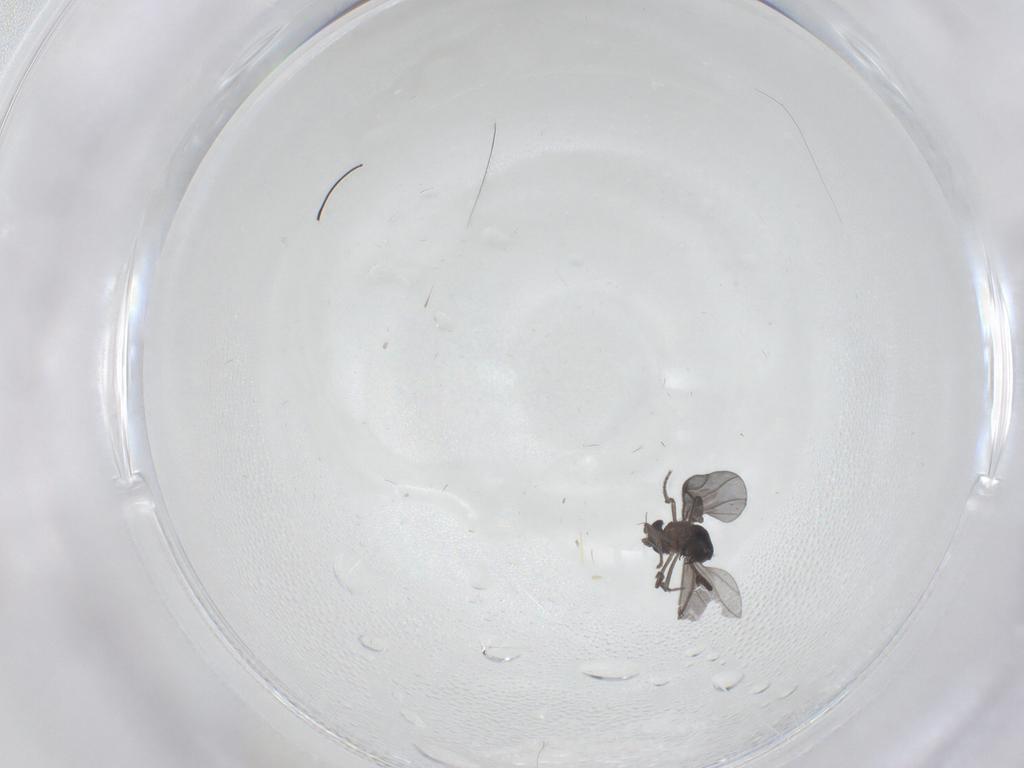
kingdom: Animalia
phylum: Arthropoda
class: Insecta
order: Diptera
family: Phoridae
